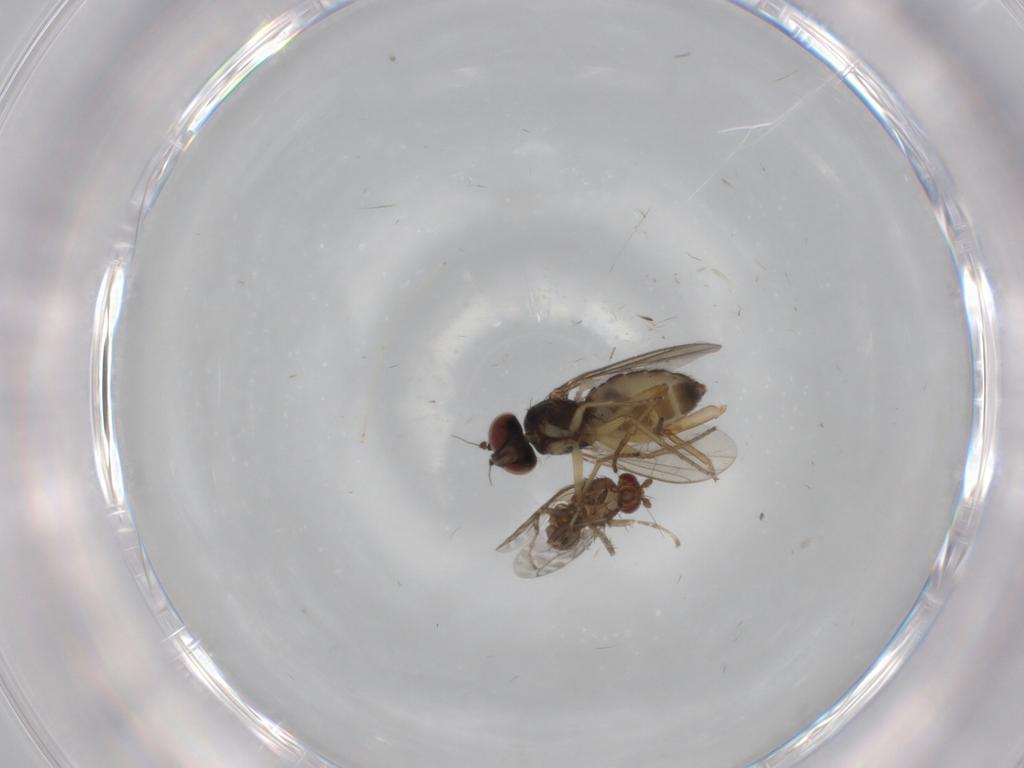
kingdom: Animalia
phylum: Arthropoda
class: Insecta
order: Diptera
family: Dolichopodidae
